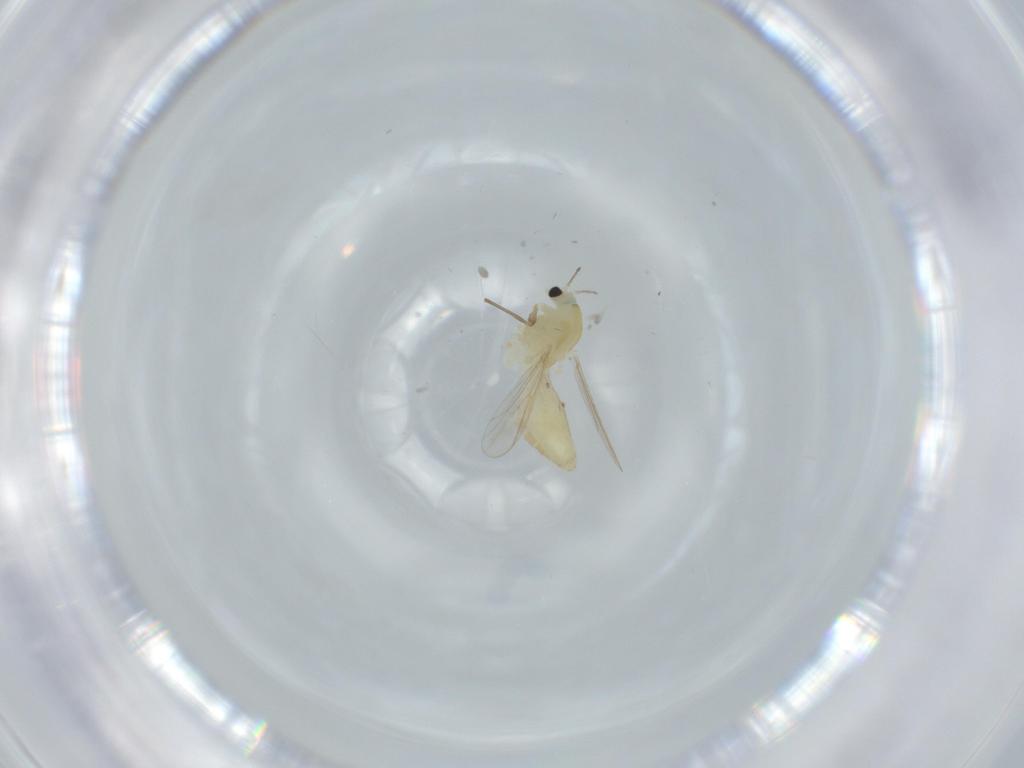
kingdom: Animalia
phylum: Arthropoda
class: Insecta
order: Diptera
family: Chironomidae
